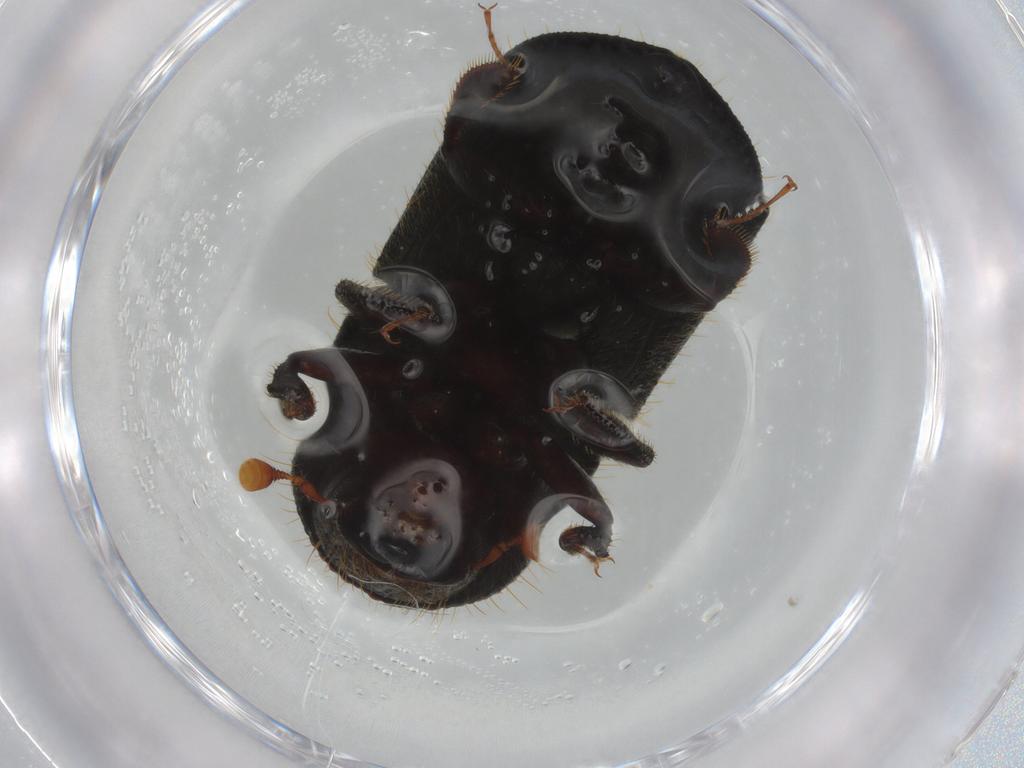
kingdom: Animalia
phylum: Arthropoda
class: Insecta
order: Coleoptera
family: Curculionidae
